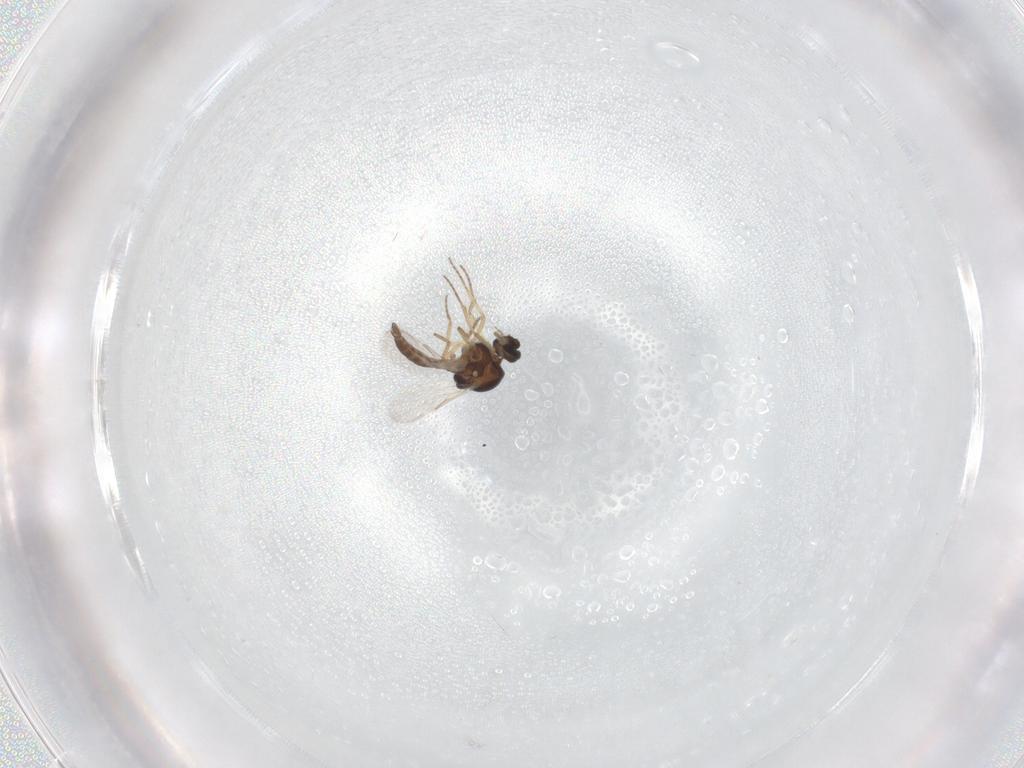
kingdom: Animalia
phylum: Arthropoda
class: Insecta
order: Diptera
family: Ceratopogonidae
